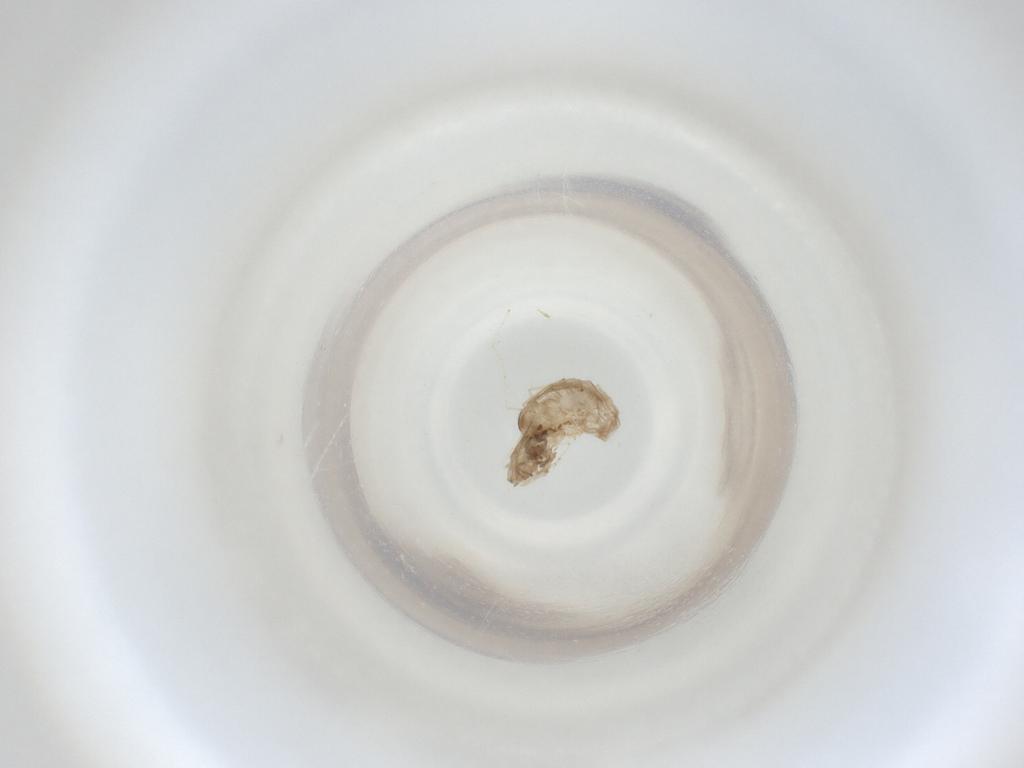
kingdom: Animalia
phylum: Arthropoda
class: Insecta
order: Diptera
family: Cecidomyiidae
